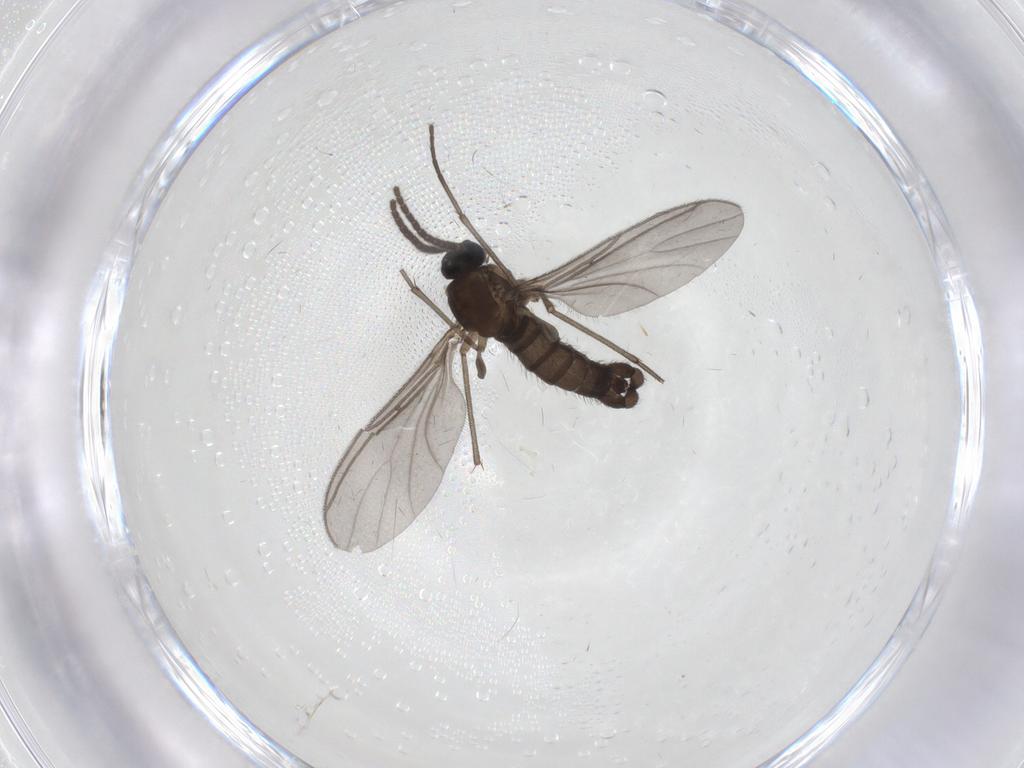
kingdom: Animalia
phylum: Arthropoda
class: Insecta
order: Diptera
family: Sciaridae
